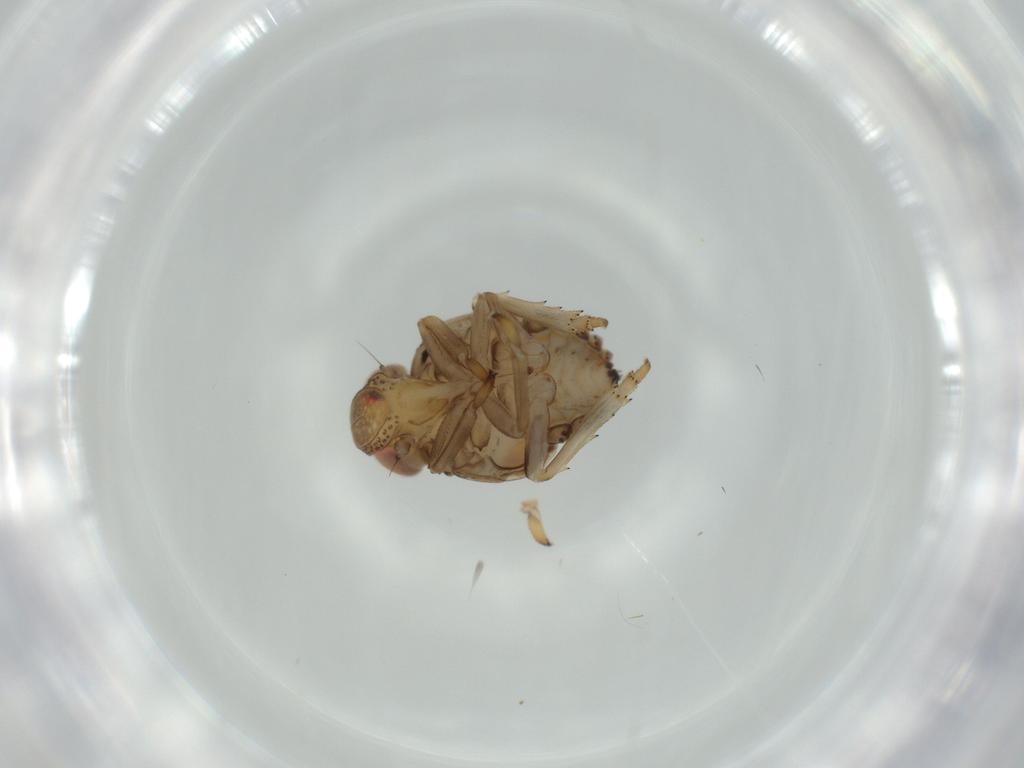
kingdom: Animalia
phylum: Arthropoda
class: Insecta
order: Hemiptera
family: Issidae
